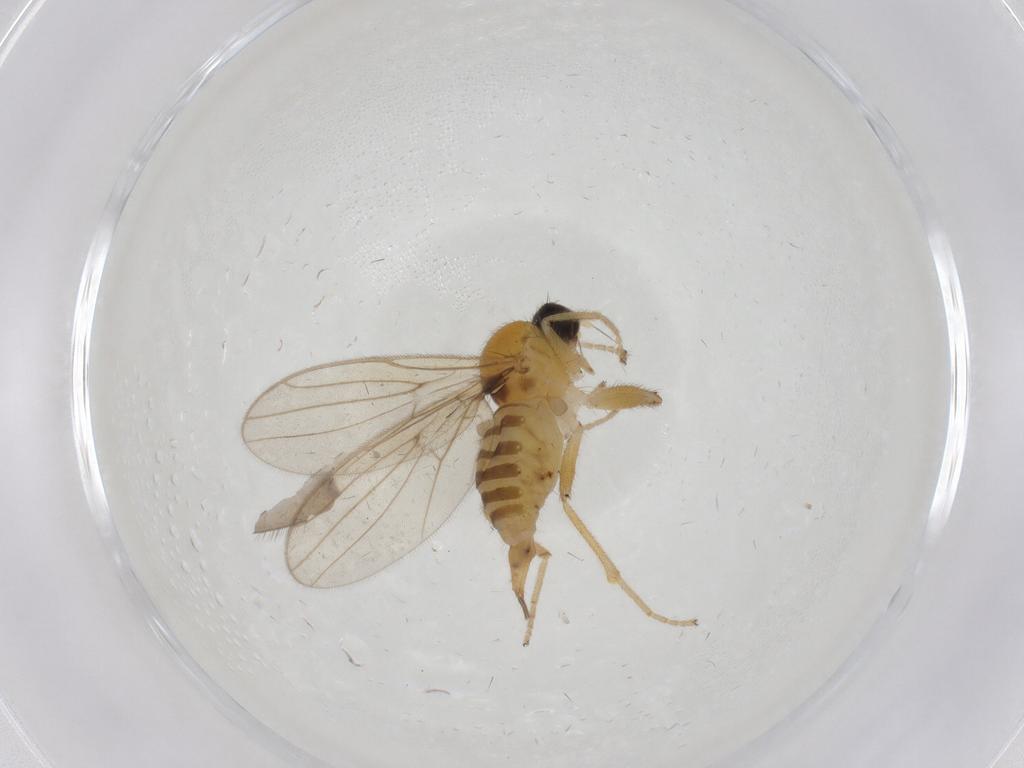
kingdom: Animalia
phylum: Arthropoda
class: Insecta
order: Diptera
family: Hybotidae
